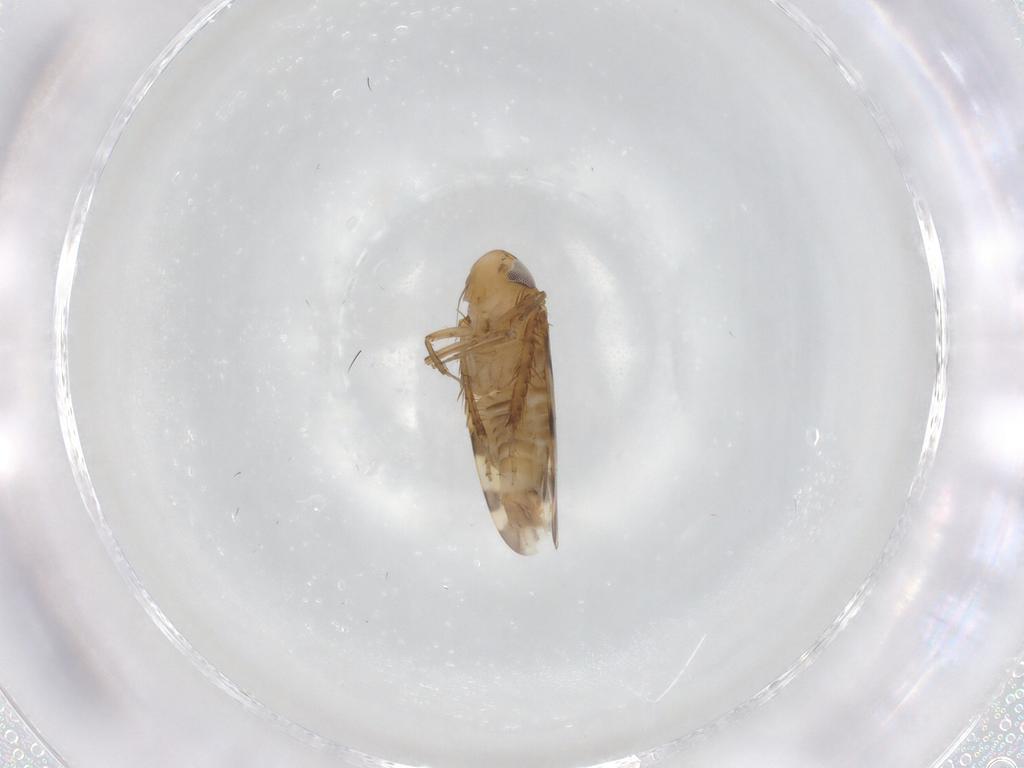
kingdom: Animalia
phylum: Arthropoda
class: Insecta
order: Hemiptera
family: Cicadellidae
